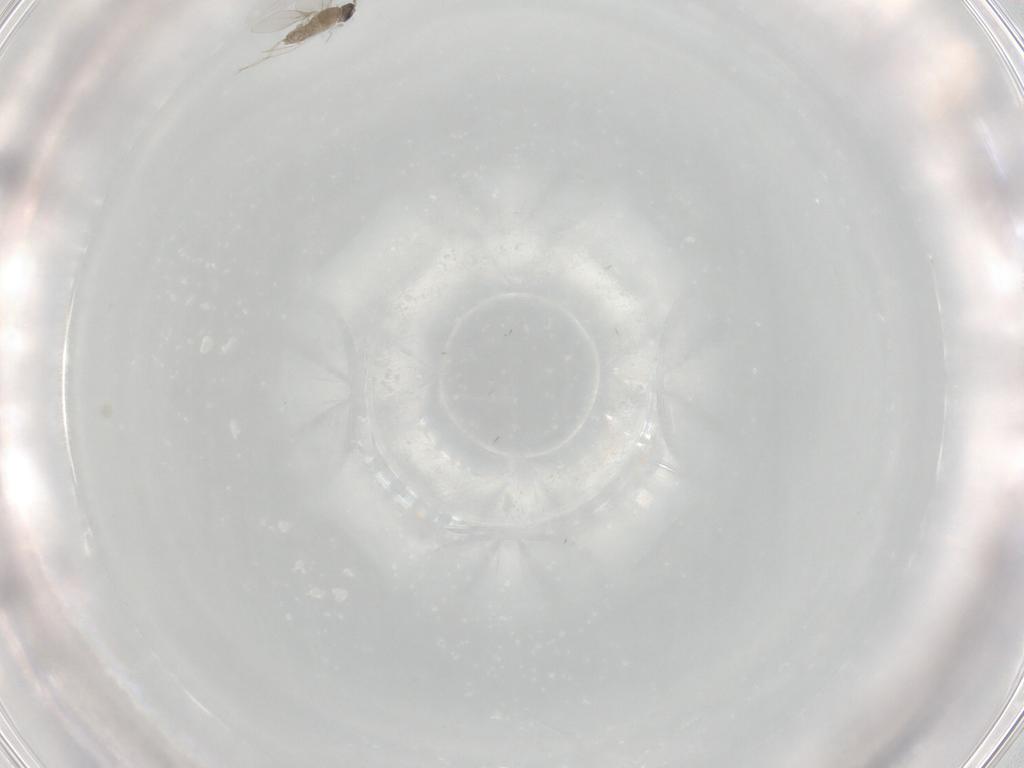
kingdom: Animalia
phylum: Arthropoda
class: Insecta
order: Diptera
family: Cecidomyiidae
